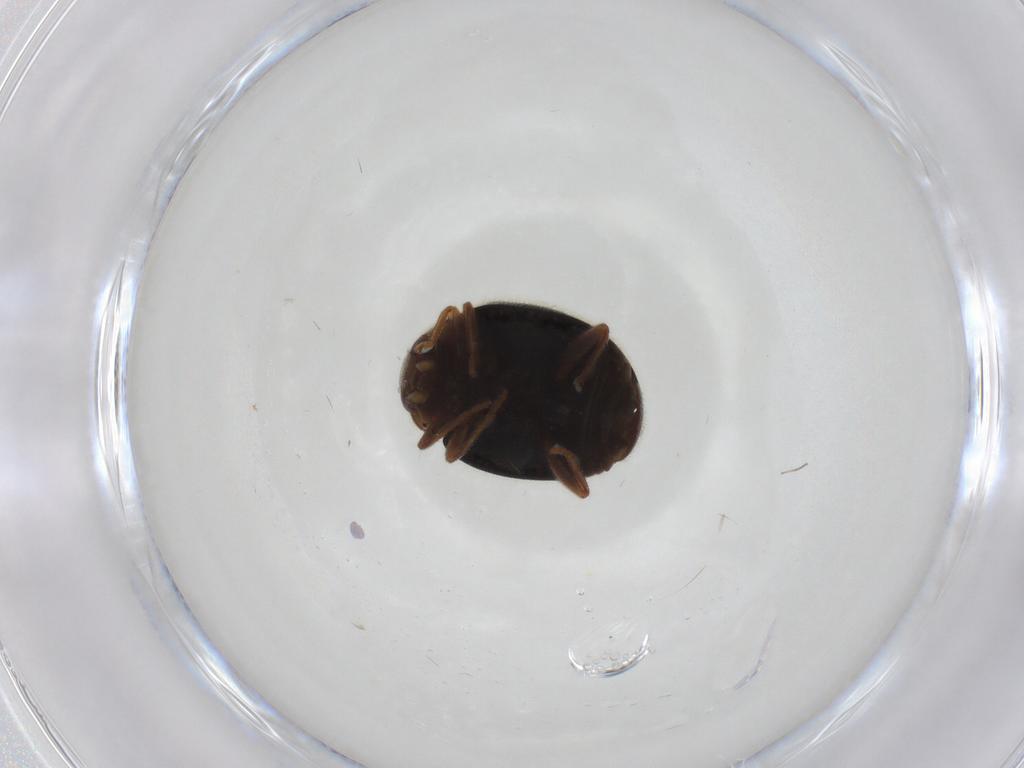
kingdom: Animalia
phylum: Arthropoda
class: Insecta
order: Coleoptera
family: Coccinellidae
